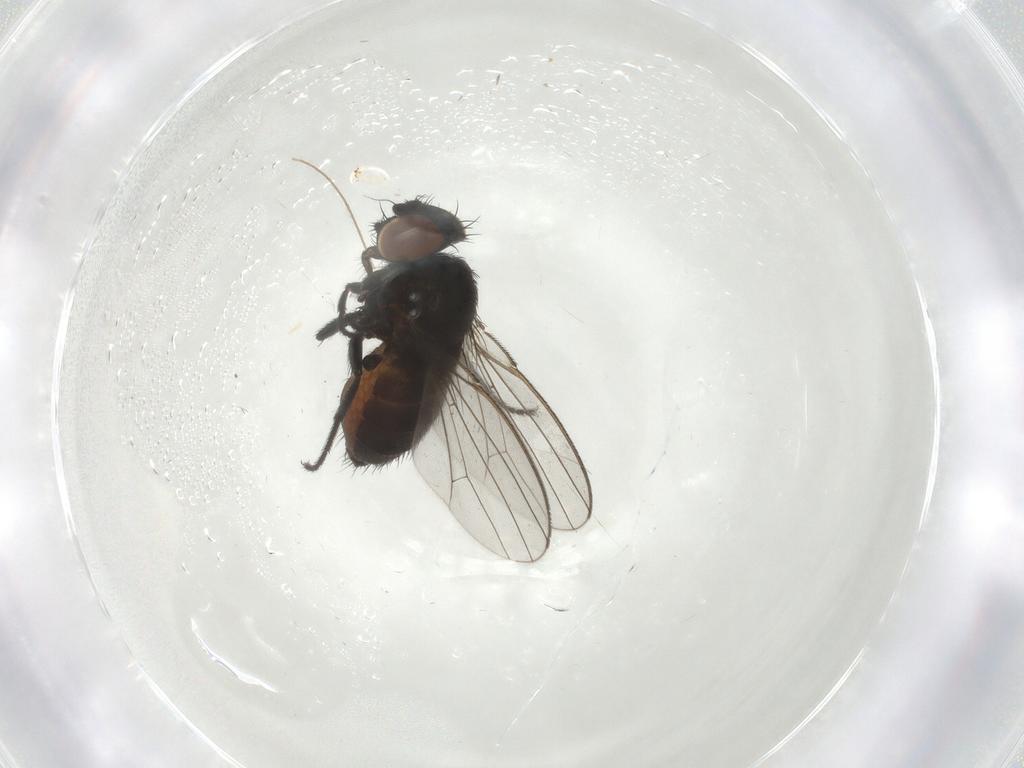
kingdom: Animalia
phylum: Arthropoda
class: Insecta
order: Diptera
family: Milichiidae
